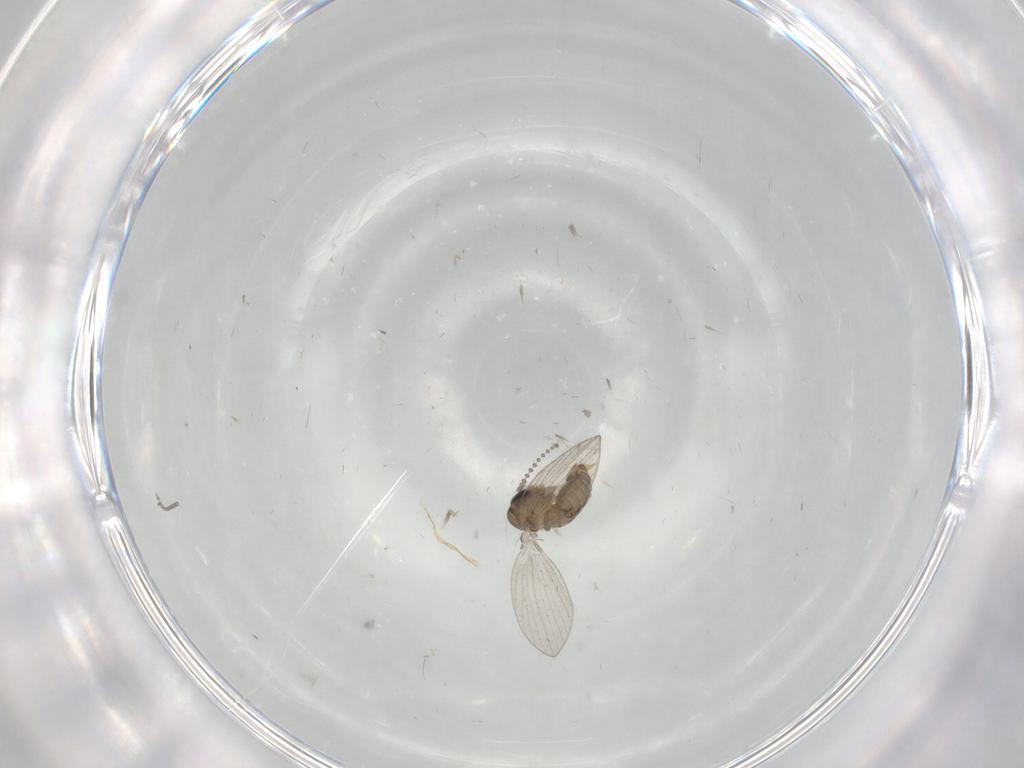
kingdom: Animalia
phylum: Arthropoda
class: Insecta
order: Diptera
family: Psychodidae
